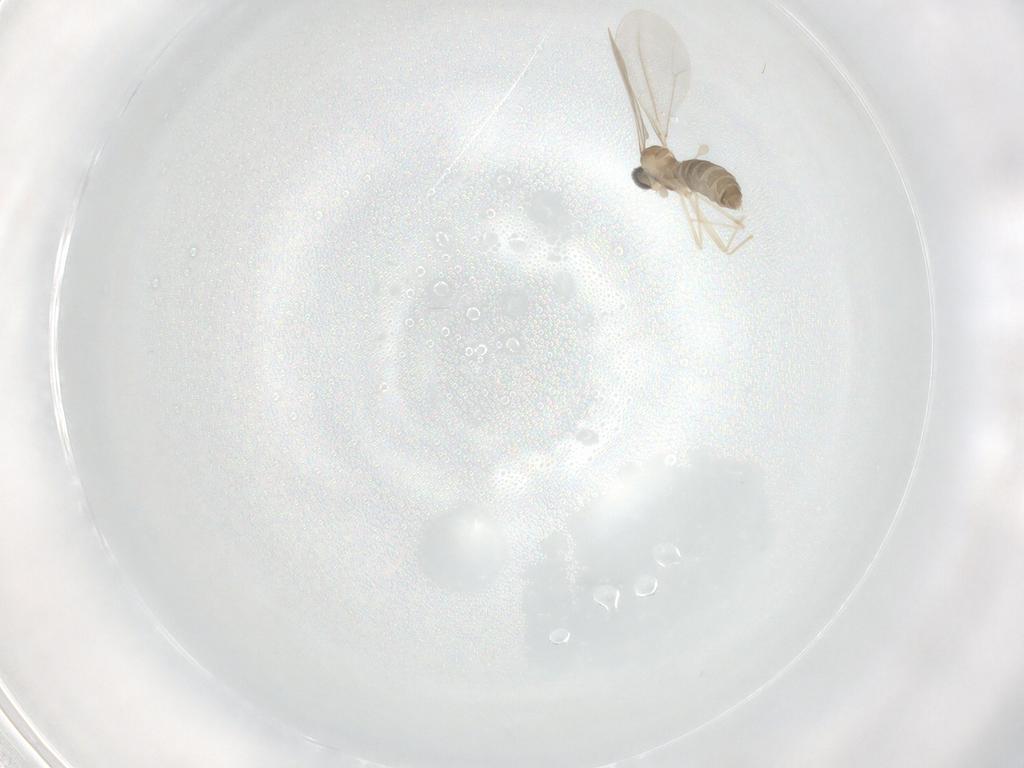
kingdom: Animalia
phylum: Arthropoda
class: Insecta
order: Diptera
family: Cecidomyiidae
